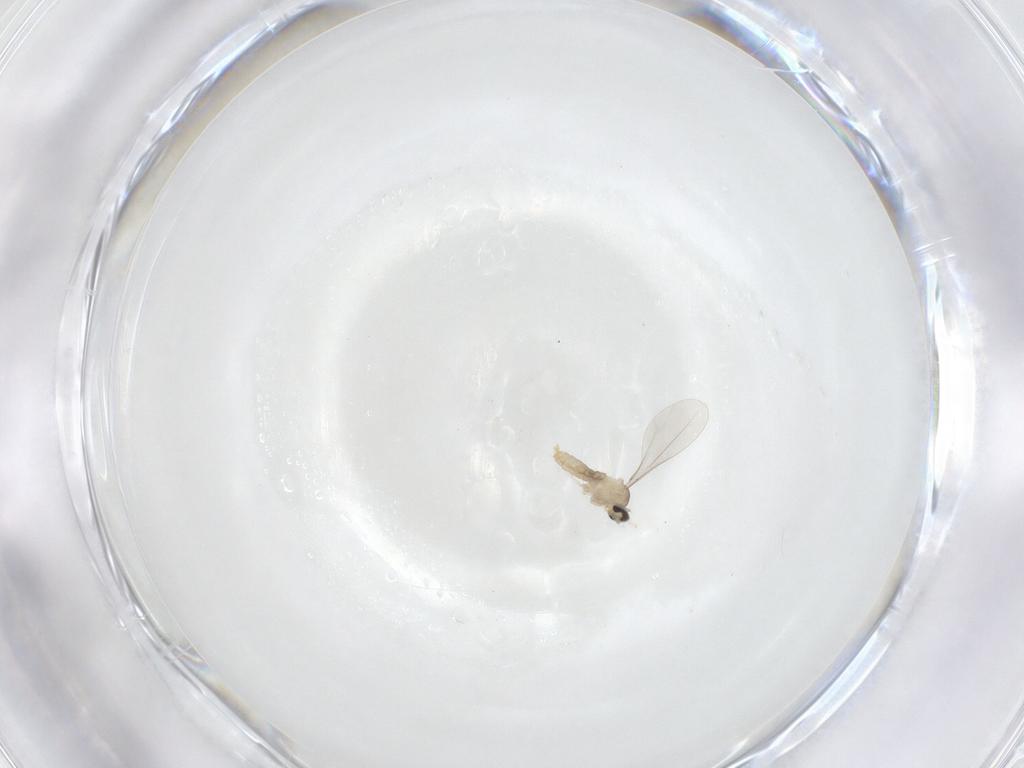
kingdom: Animalia
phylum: Arthropoda
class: Insecta
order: Diptera
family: Cecidomyiidae
